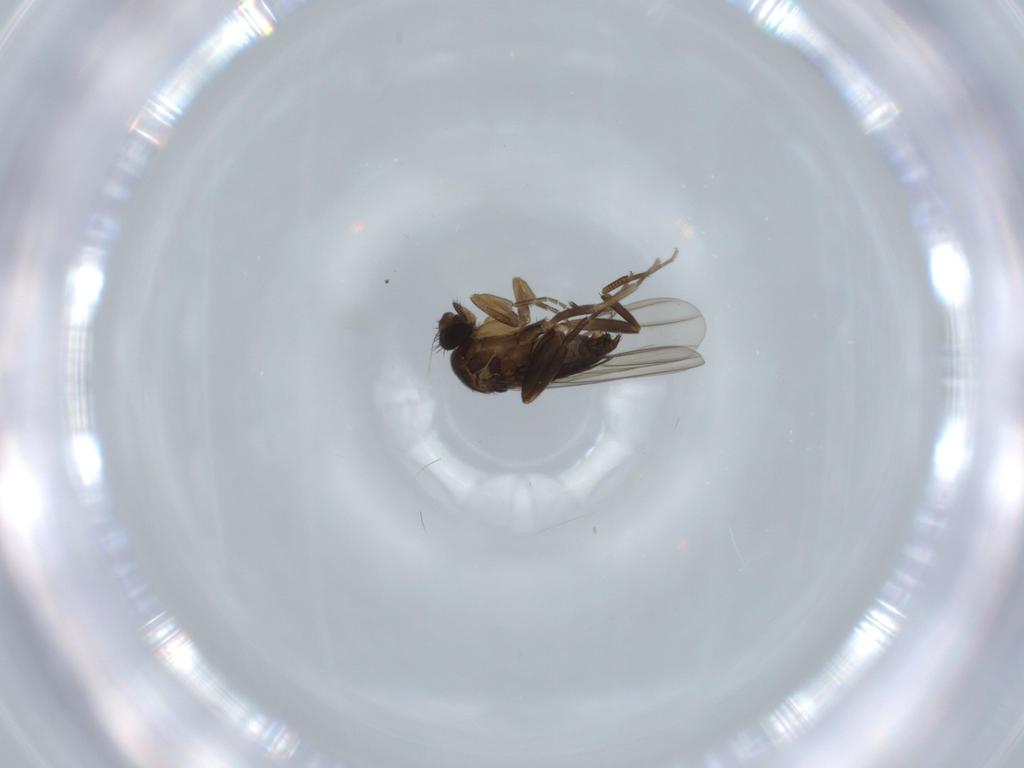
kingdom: Animalia
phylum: Arthropoda
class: Insecta
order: Diptera
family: Phoridae
